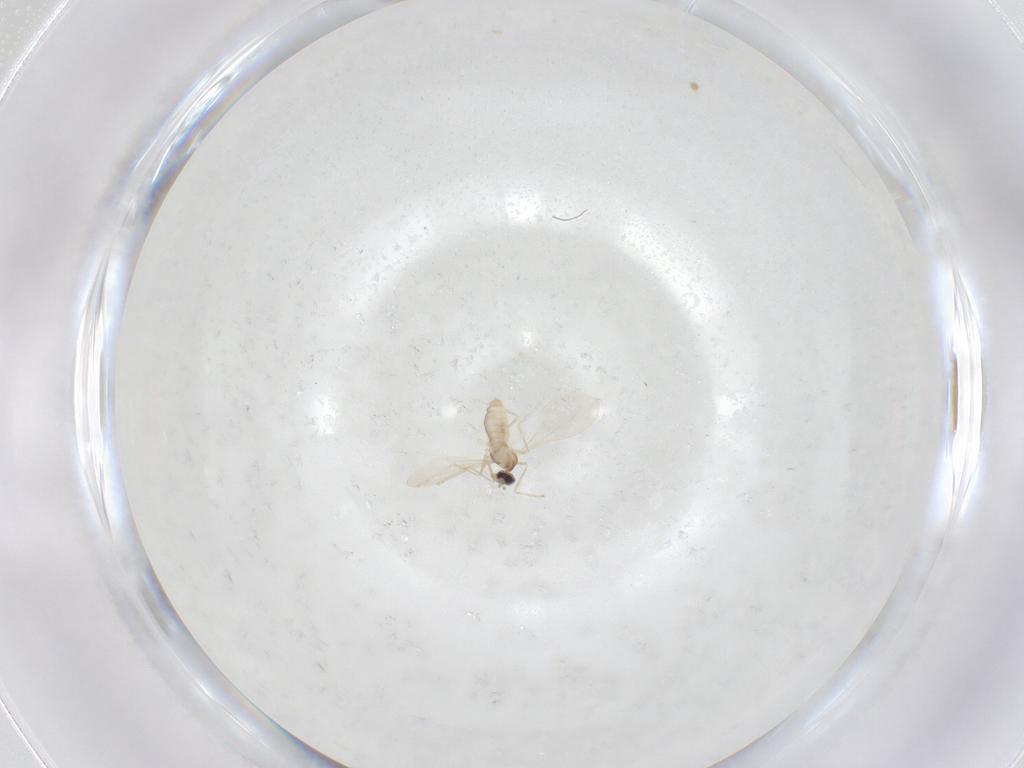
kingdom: Animalia
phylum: Arthropoda
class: Insecta
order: Diptera
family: Cecidomyiidae
